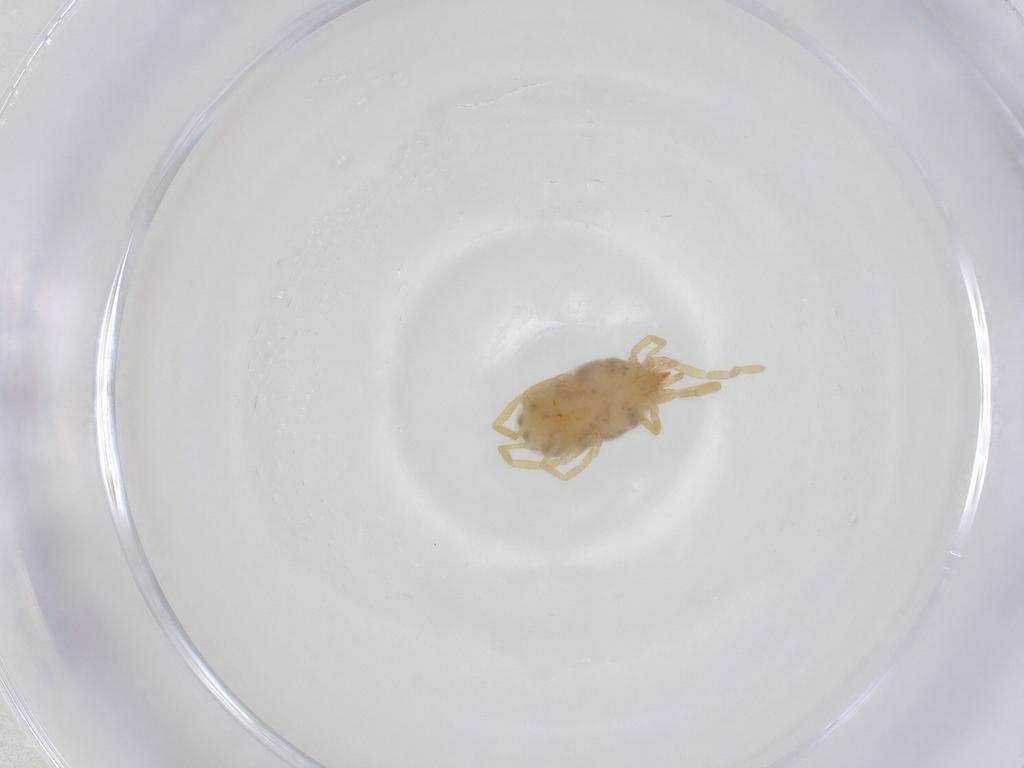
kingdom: Animalia
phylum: Arthropoda
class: Arachnida
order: Trombidiformes
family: Erythraeidae
